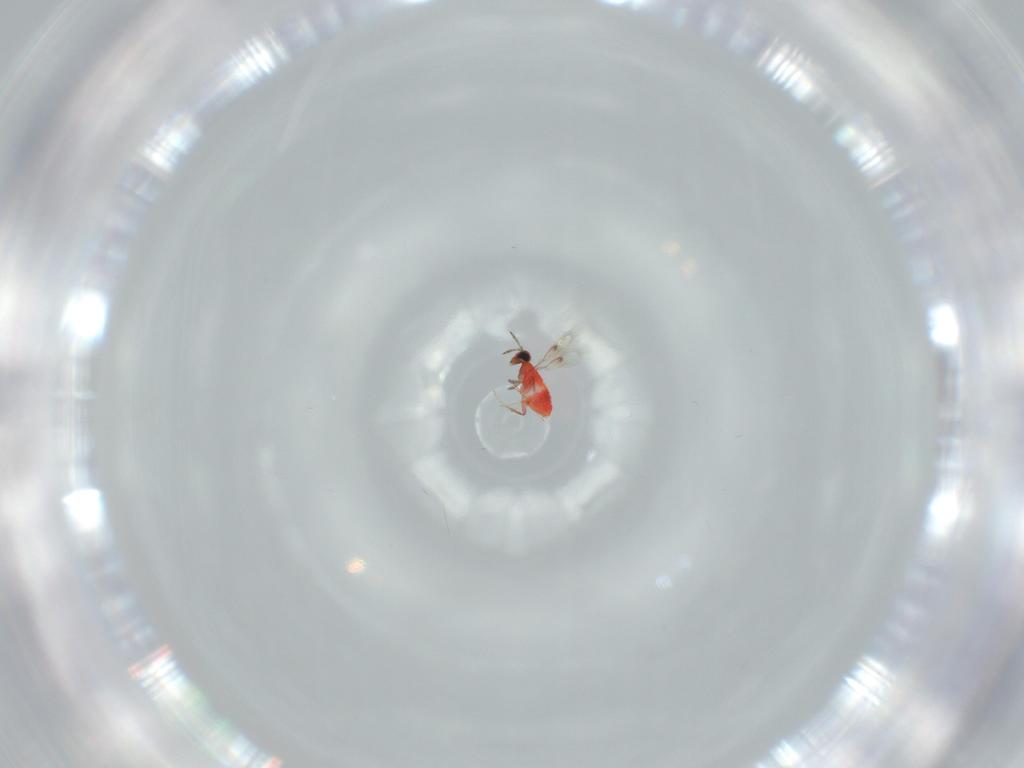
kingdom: Animalia
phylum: Arthropoda
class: Insecta
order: Hymenoptera
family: Trichogrammatidae
